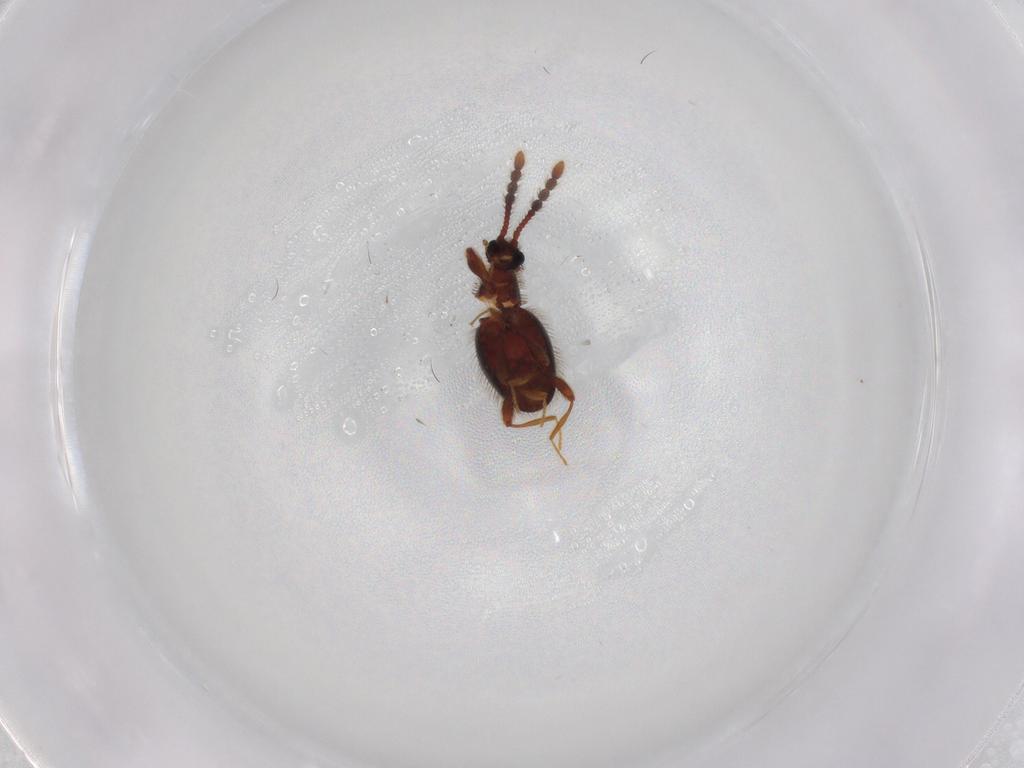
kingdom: Animalia
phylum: Arthropoda
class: Insecta
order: Coleoptera
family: Staphylinidae
